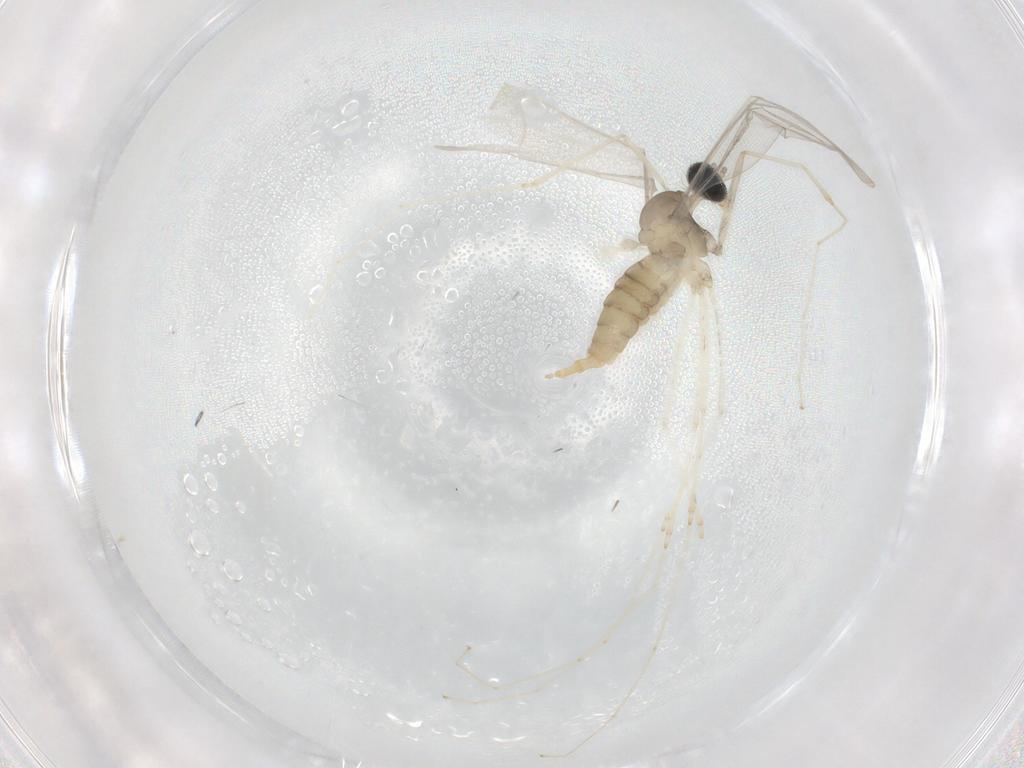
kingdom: Animalia
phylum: Arthropoda
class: Insecta
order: Diptera
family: Cecidomyiidae
